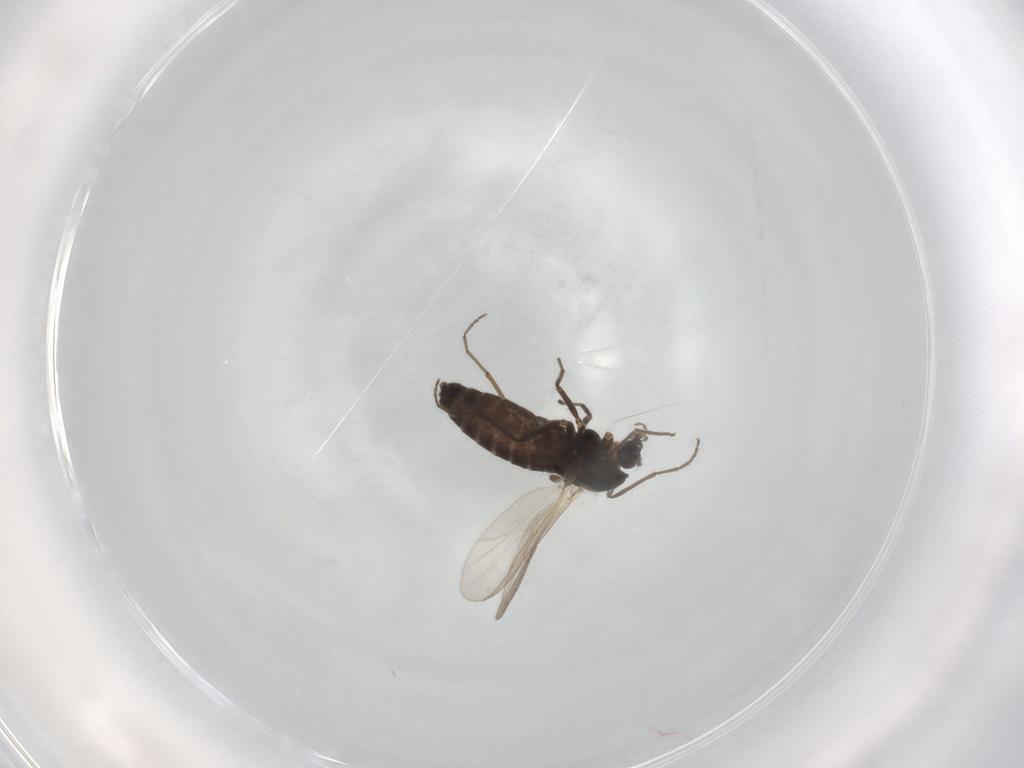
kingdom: Animalia
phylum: Arthropoda
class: Insecta
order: Diptera
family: Chironomidae
